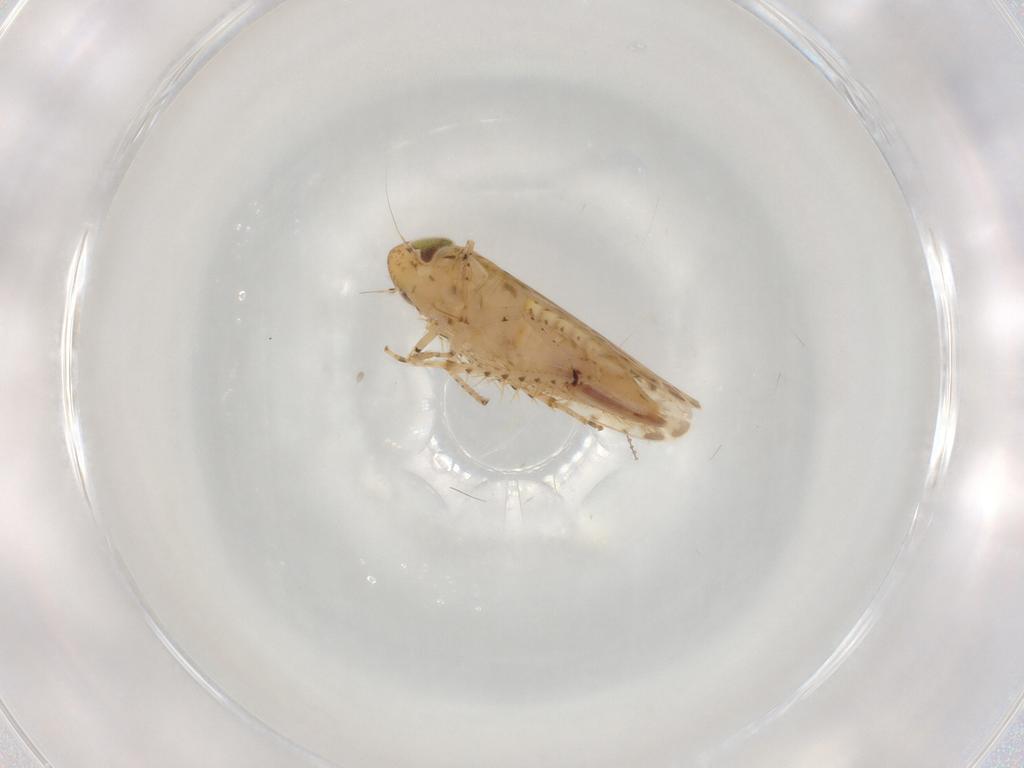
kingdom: Animalia
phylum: Arthropoda
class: Insecta
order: Hemiptera
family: Cicadellidae
